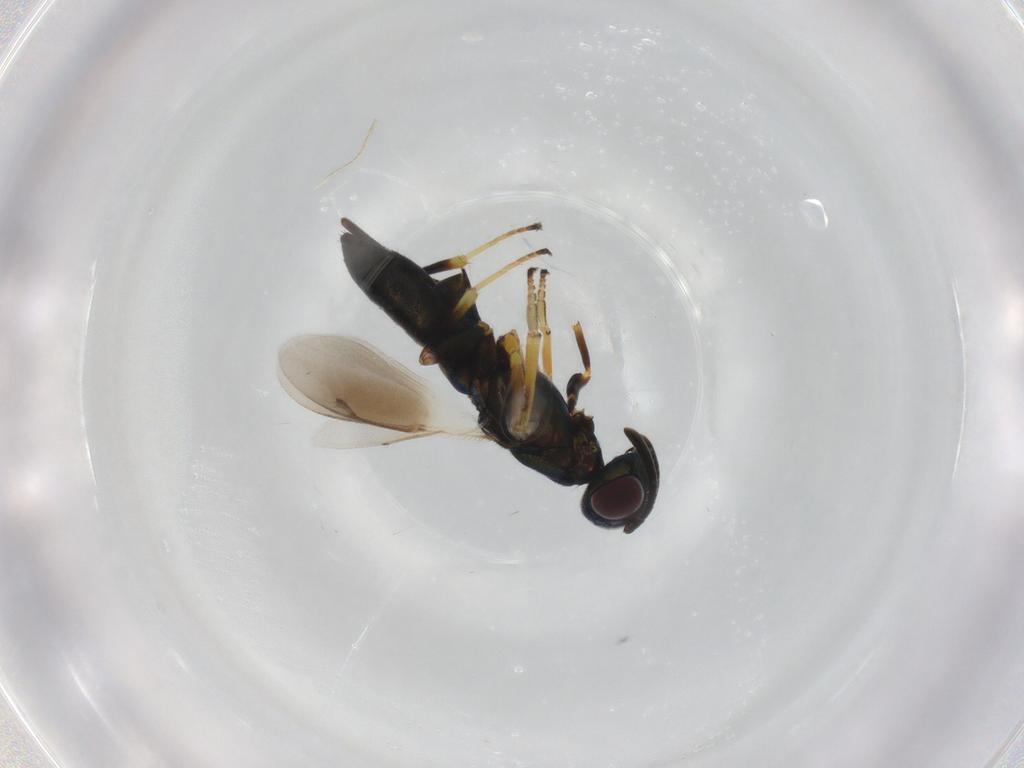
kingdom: Animalia
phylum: Arthropoda
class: Insecta
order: Hymenoptera
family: Eupelmidae
